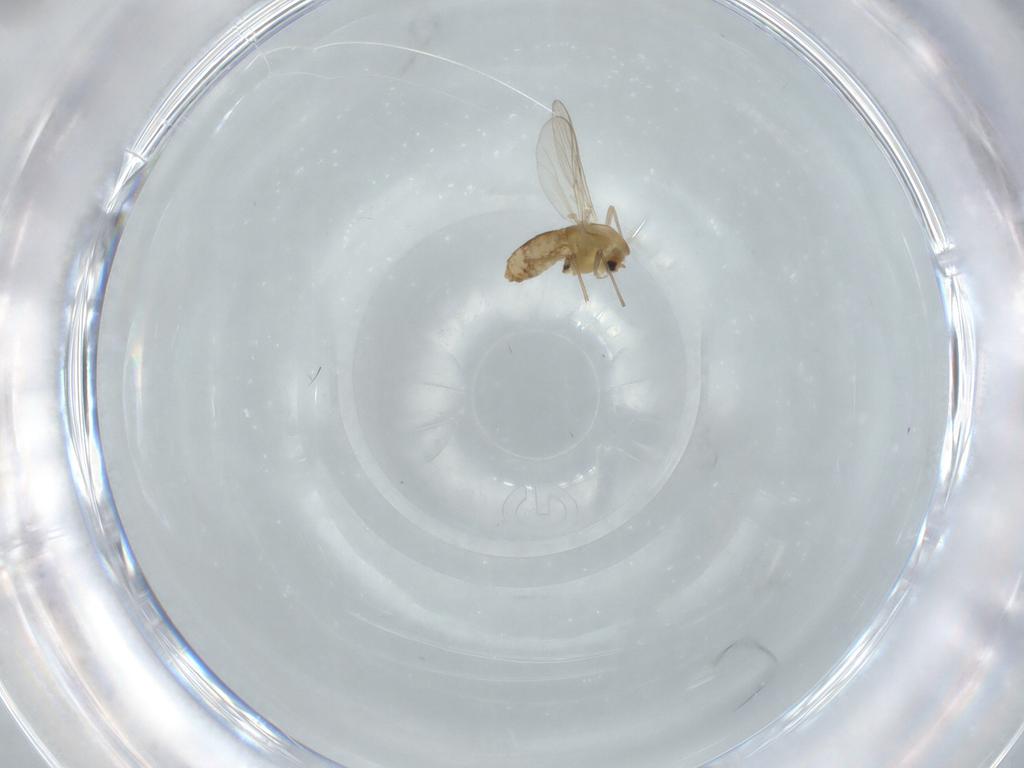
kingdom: Animalia
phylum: Arthropoda
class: Insecta
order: Diptera
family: Chironomidae
